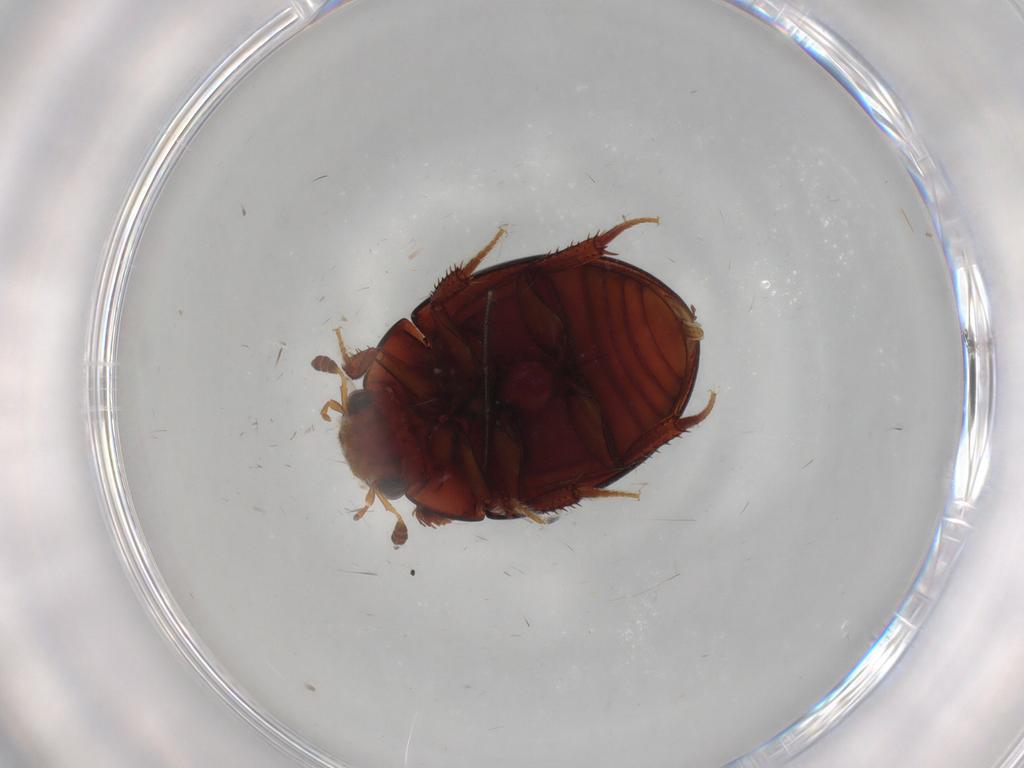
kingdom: Animalia
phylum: Arthropoda
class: Insecta
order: Coleoptera
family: Hydrophilidae
